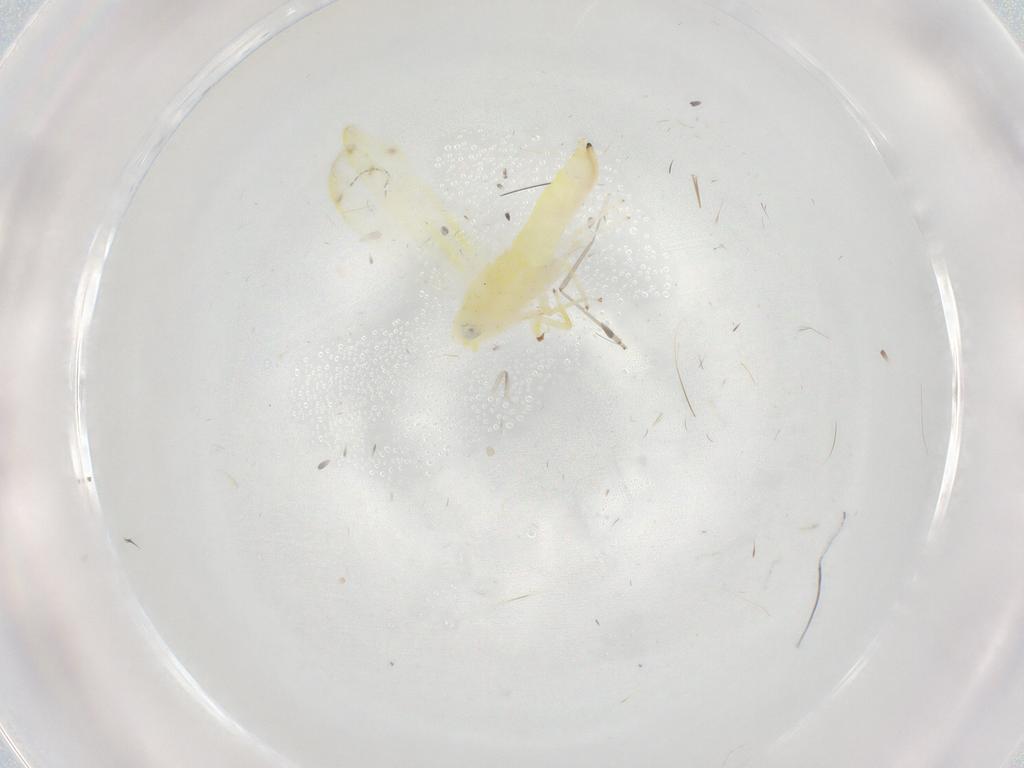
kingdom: Animalia
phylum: Arthropoda
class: Insecta
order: Hemiptera
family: Cicadellidae
